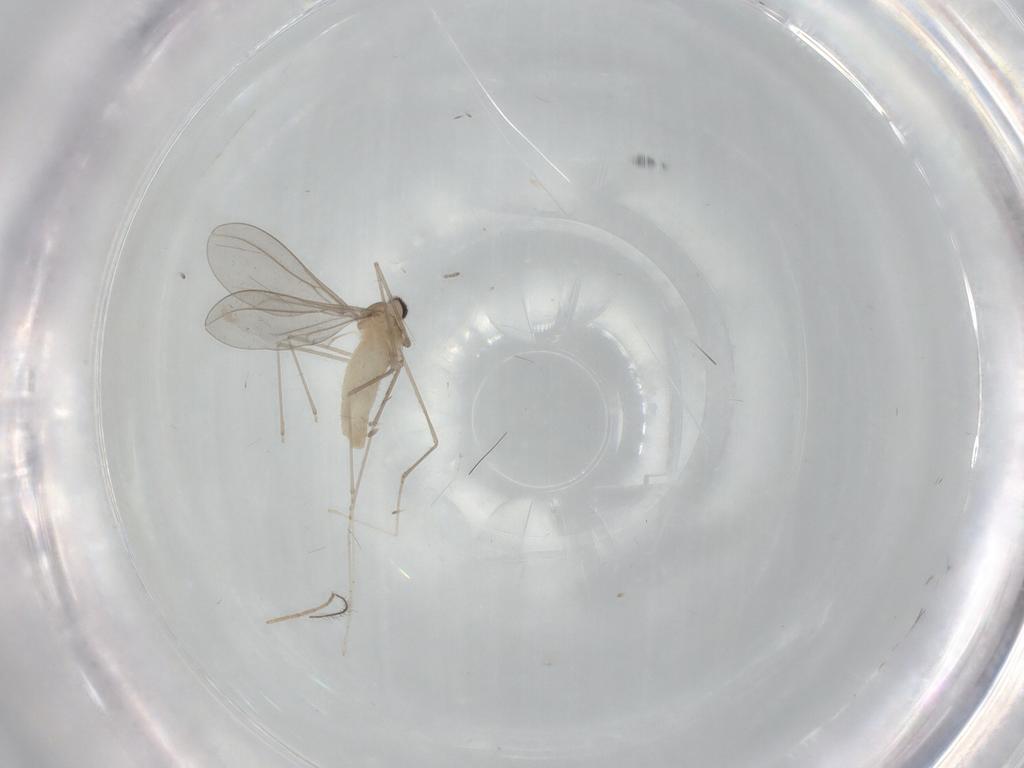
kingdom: Animalia
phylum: Arthropoda
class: Insecta
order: Diptera
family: Cecidomyiidae
